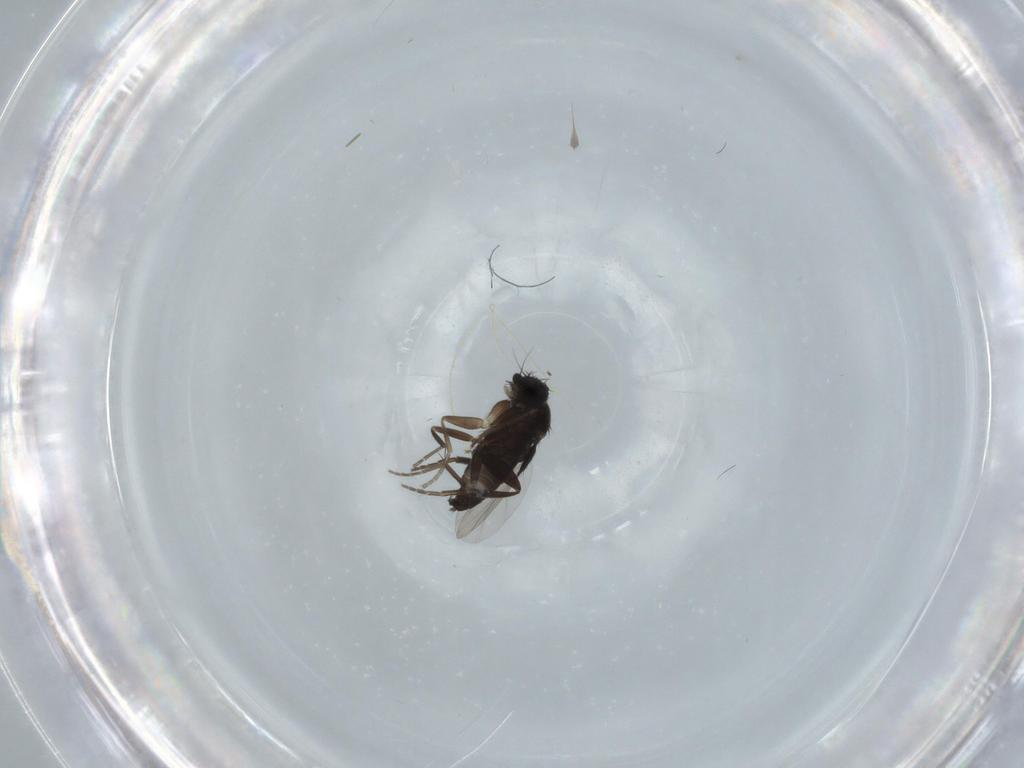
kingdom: Animalia
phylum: Arthropoda
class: Insecta
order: Diptera
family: Phoridae
